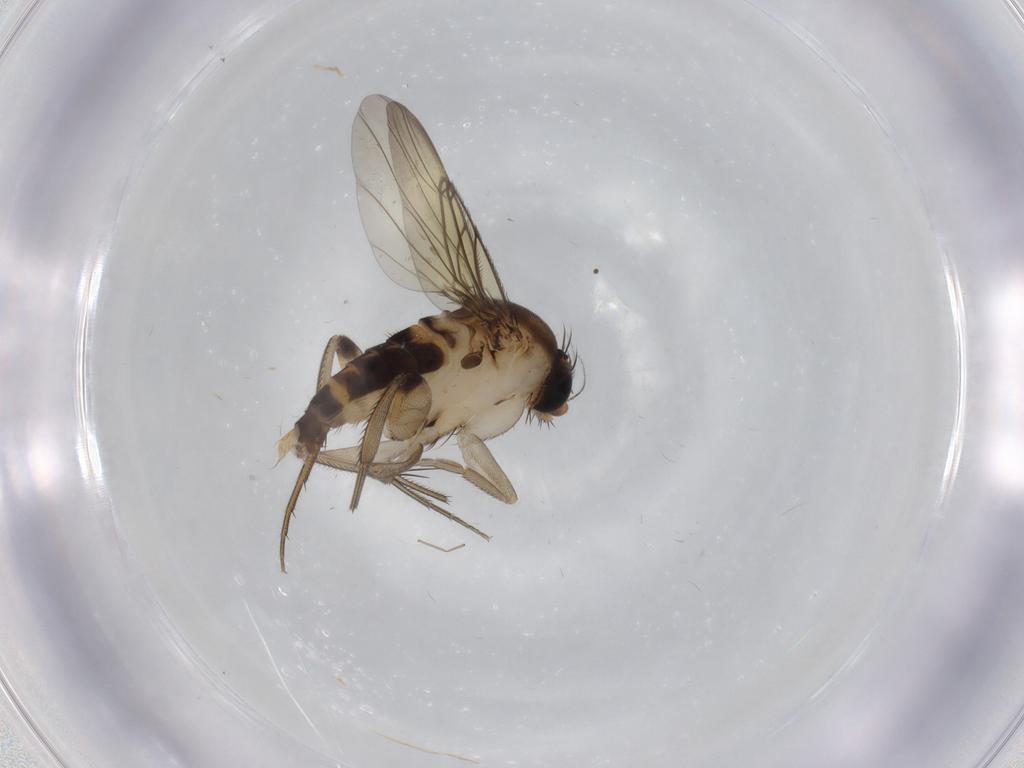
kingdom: Animalia
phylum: Arthropoda
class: Insecta
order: Diptera
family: Phoridae
